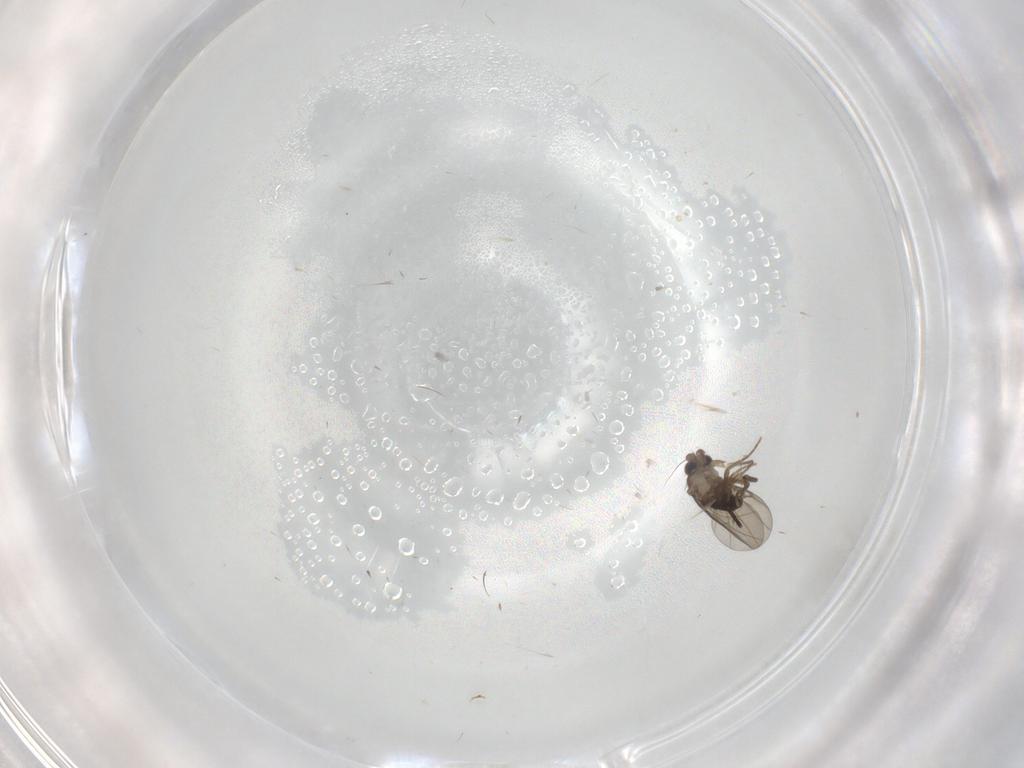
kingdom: Animalia
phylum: Arthropoda
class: Insecta
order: Diptera
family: Phoridae
